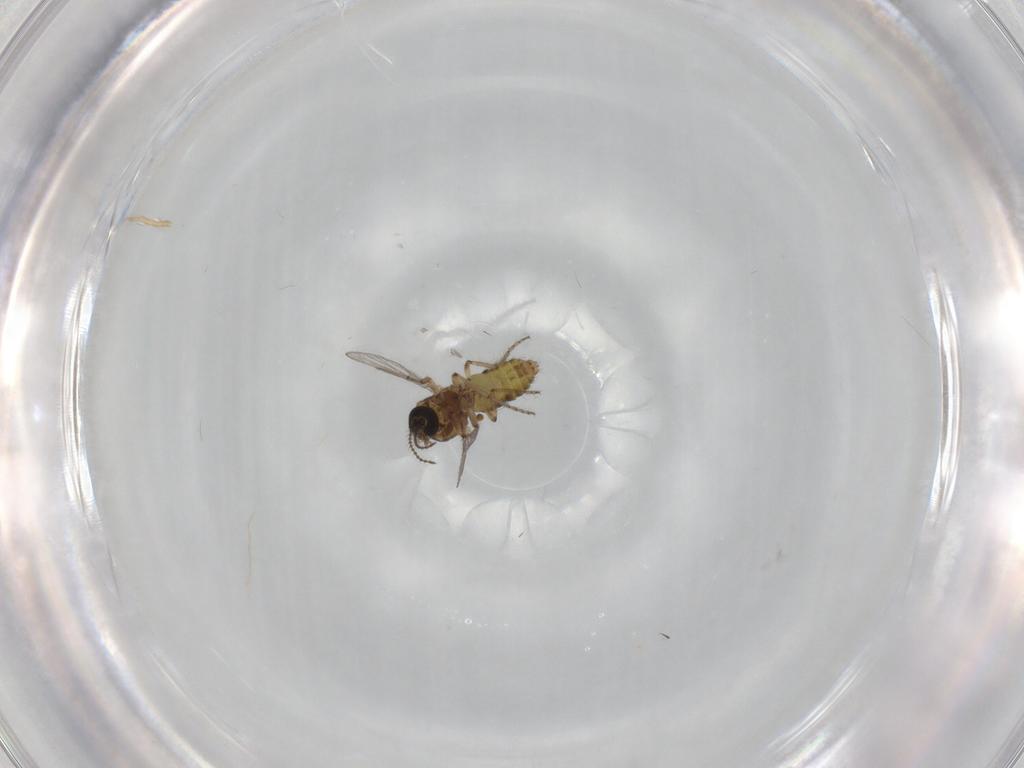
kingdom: Animalia
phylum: Arthropoda
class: Insecta
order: Diptera
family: Ceratopogonidae
